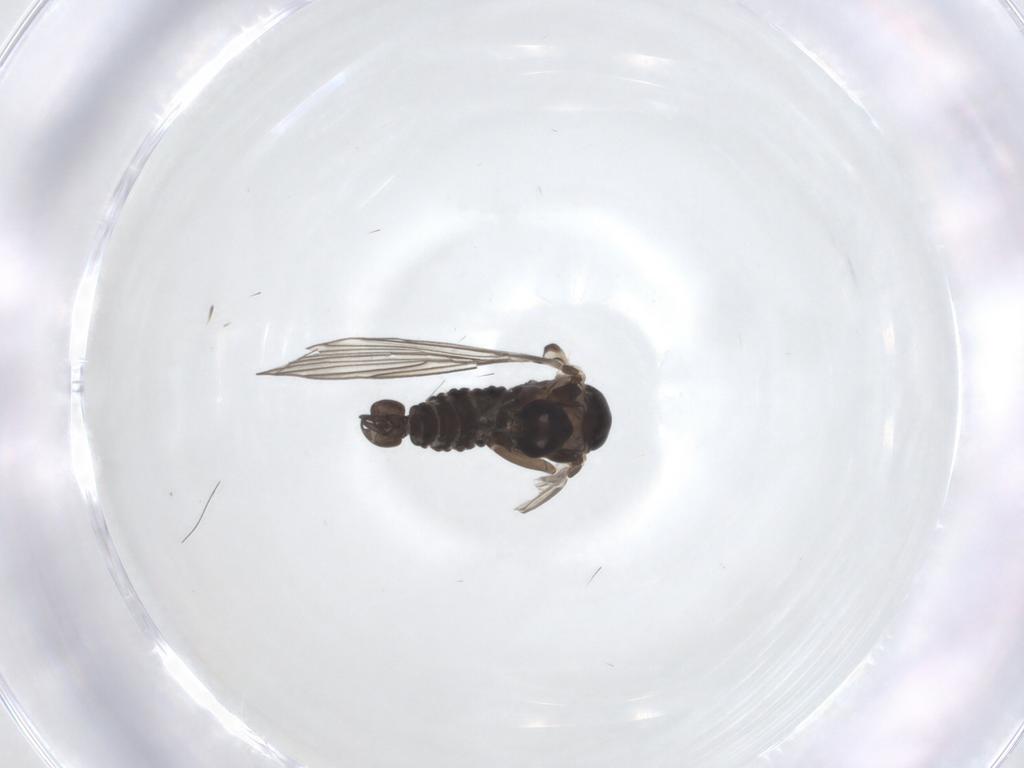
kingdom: Animalia
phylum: Arthropoda
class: Insecta
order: Diptera
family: Psychodidae
